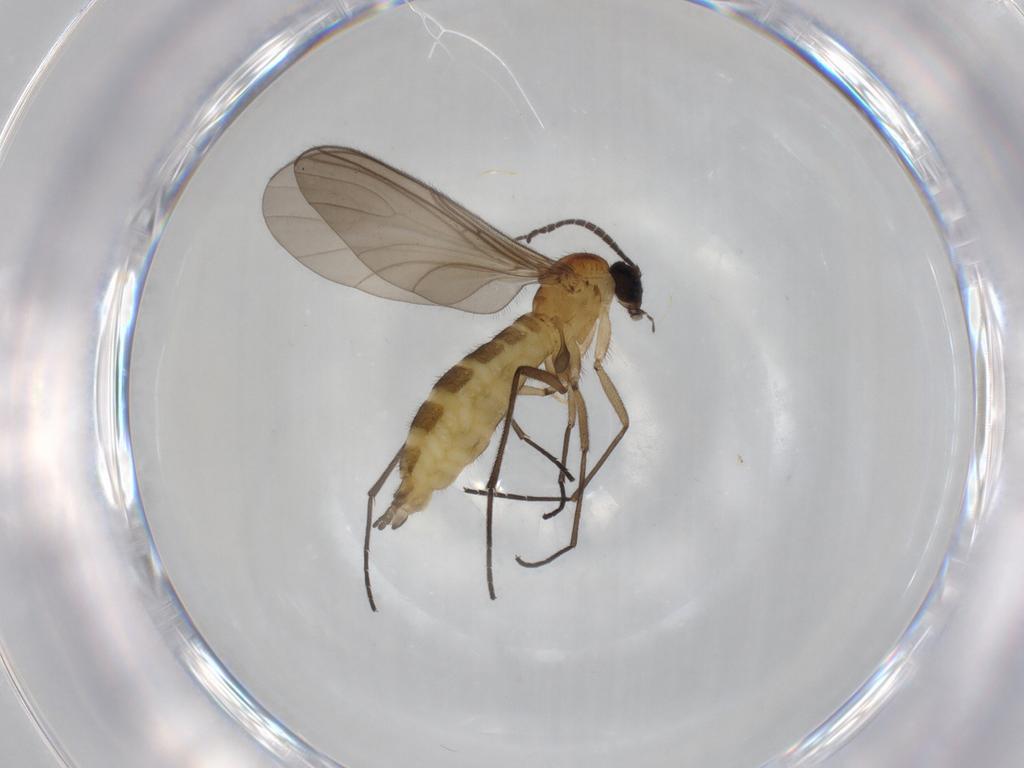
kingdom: Animalia
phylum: Arthropoda
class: Insecta
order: Diptera
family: Sciaridae
